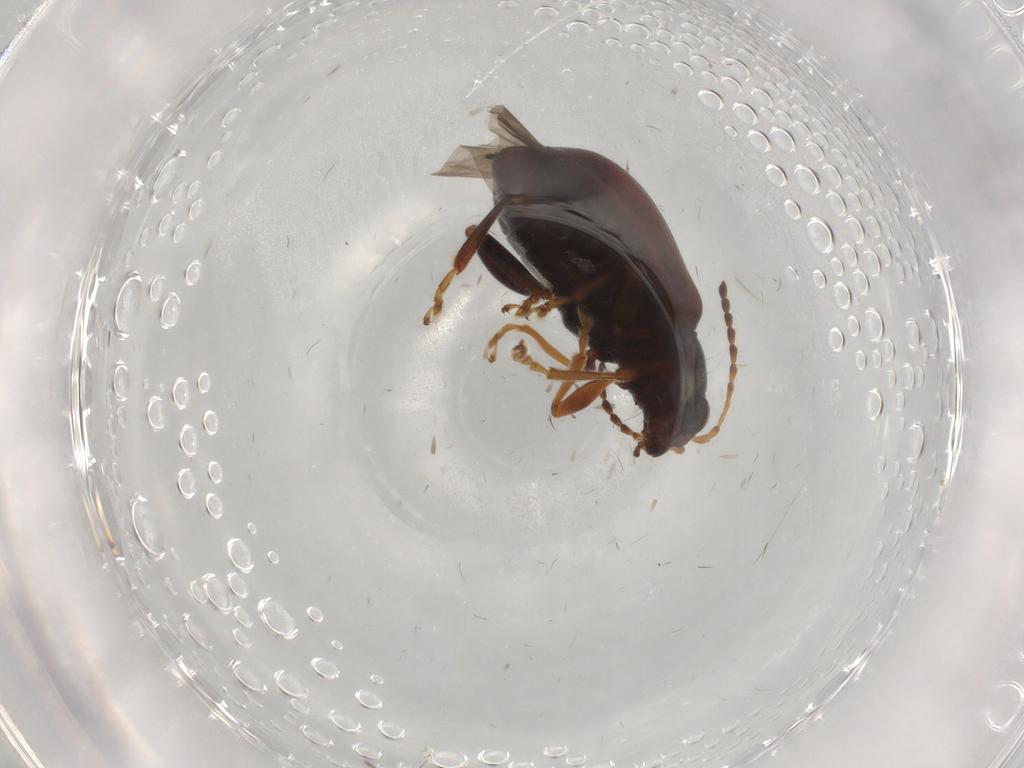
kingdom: Animalia
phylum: Arthropoda
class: Insecta
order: Coleoptera
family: Chrysomelidae
